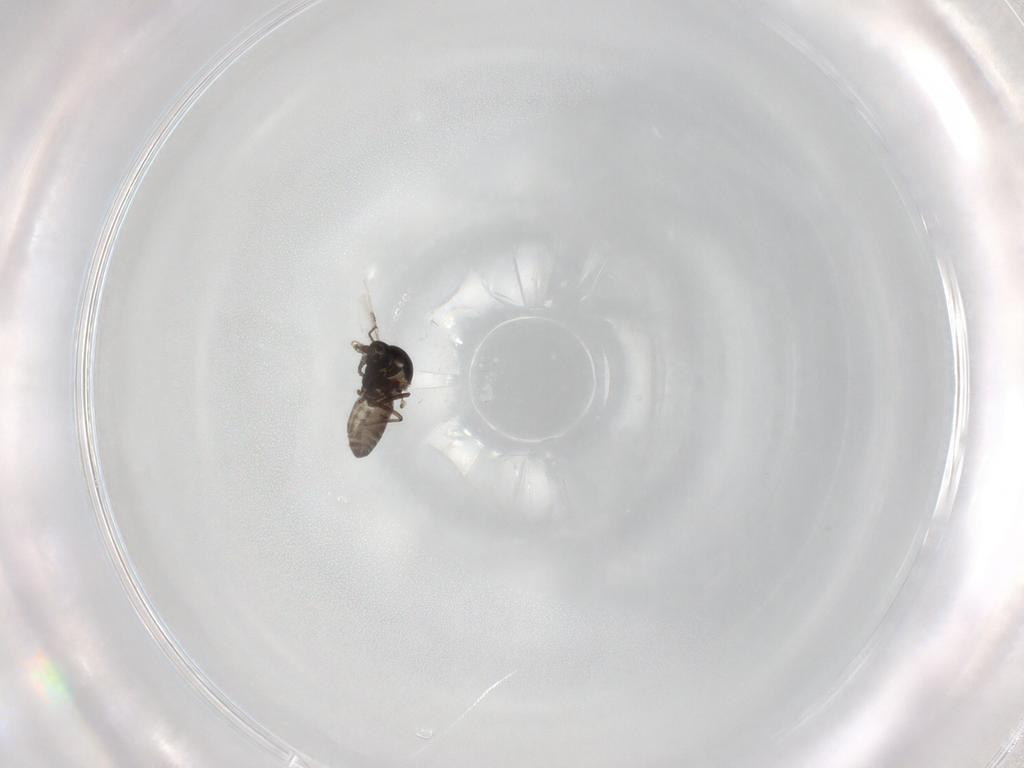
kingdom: Animalia
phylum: Arthropoda
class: Insecta
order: Diptera
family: Ceratopogonidae
